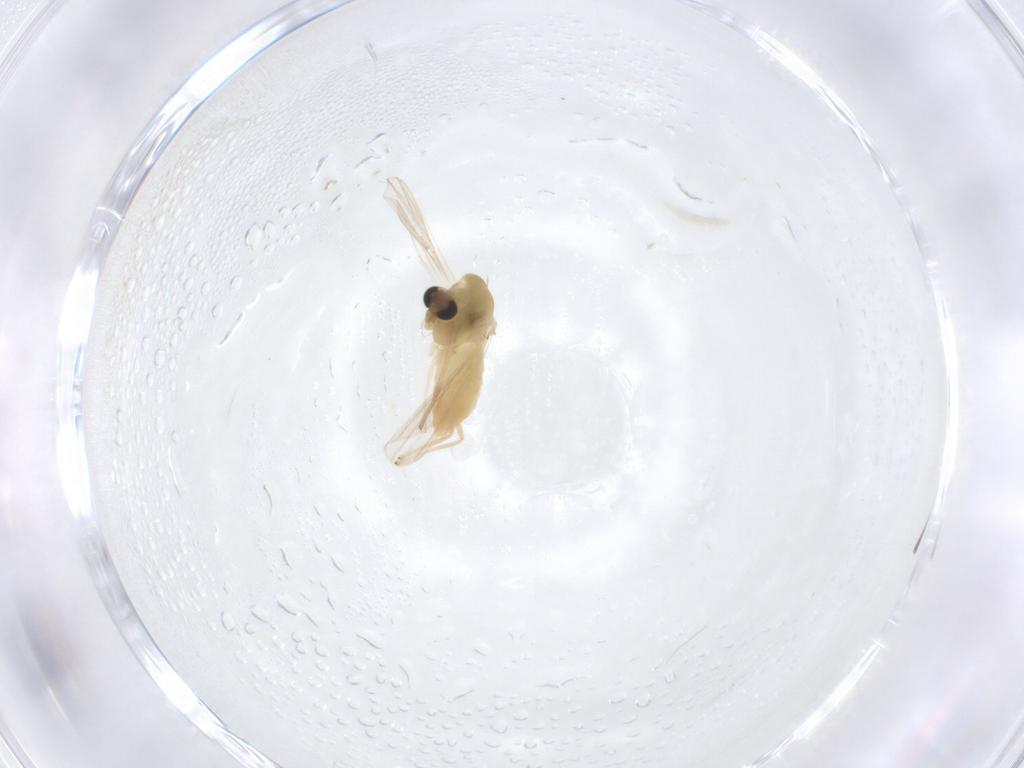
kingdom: Animalia
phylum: Arthropoda
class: Insecta
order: Diptera
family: Chironomidae
